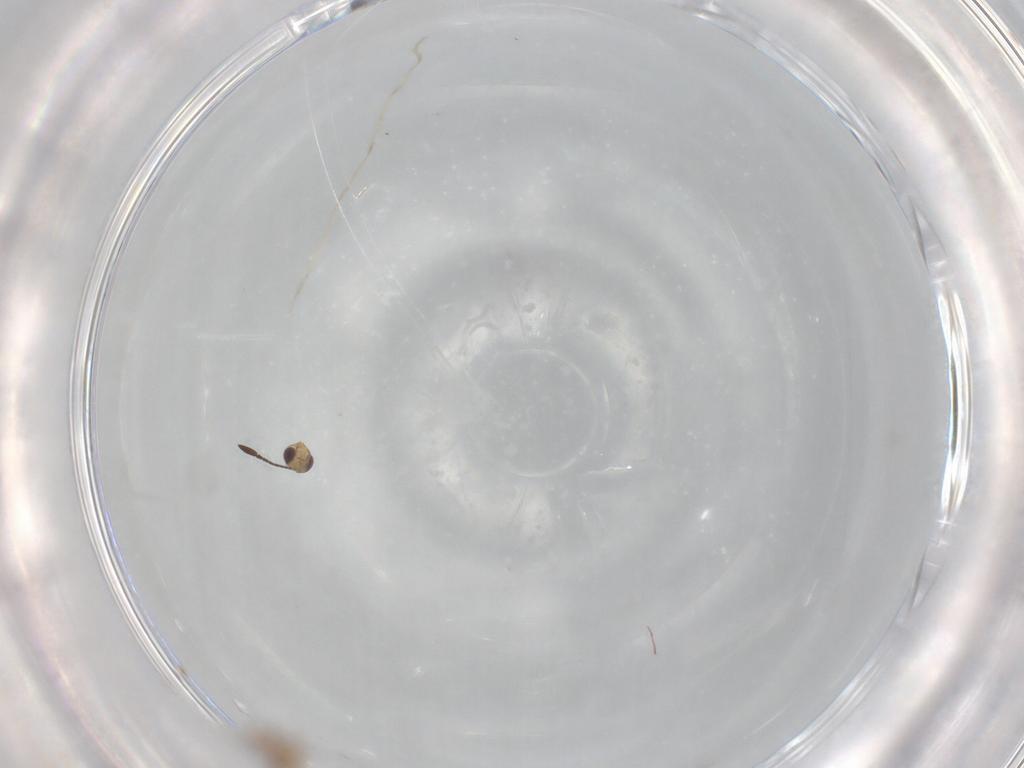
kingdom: Animalia
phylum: Arthropoda
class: Insecta
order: Hymenoptera
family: Mymaridae
